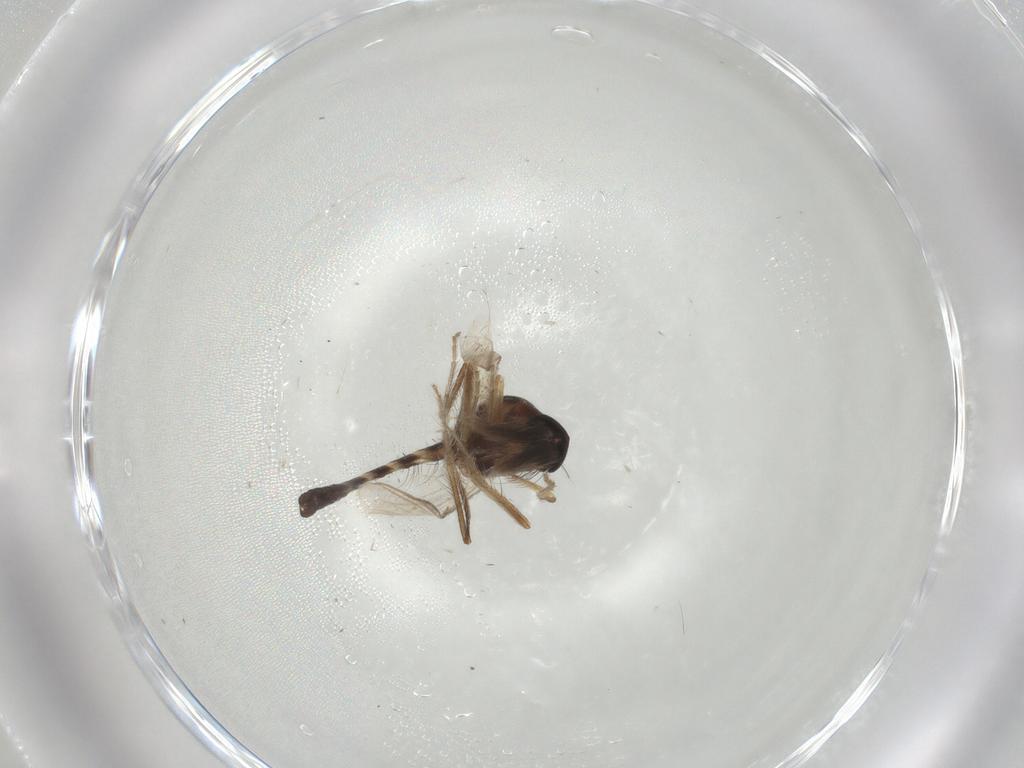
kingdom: Animalia
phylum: Arthropoda
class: Insecta
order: Diptera
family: Ceratopogonidae
